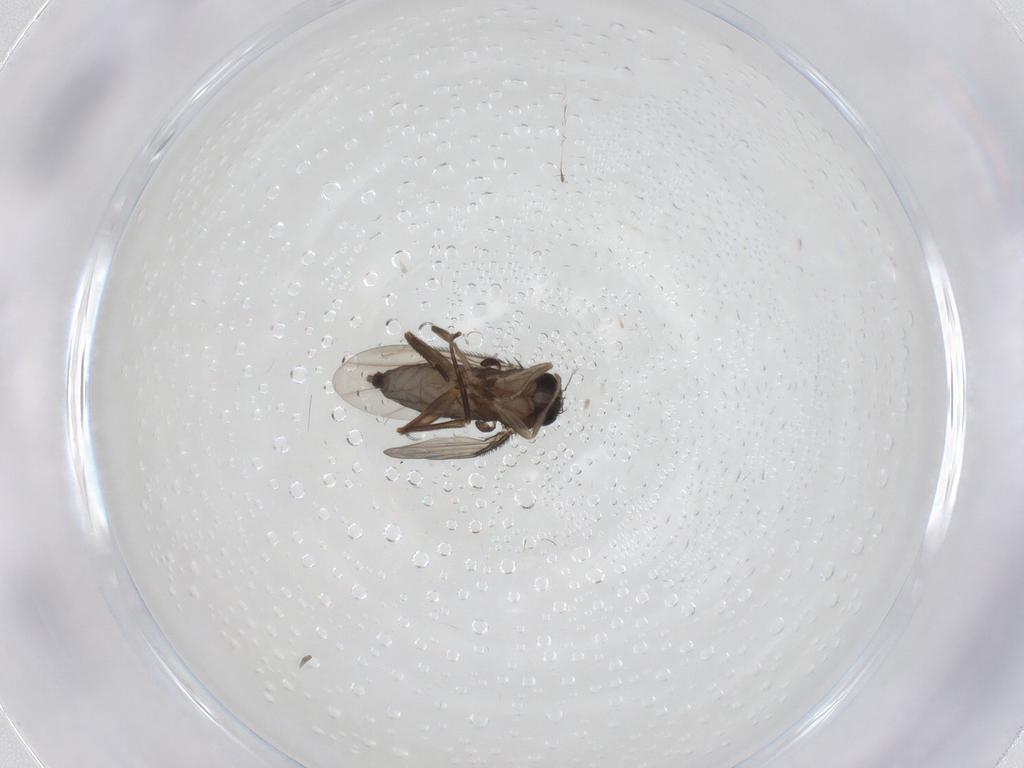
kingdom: Animalia
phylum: Arthropoda
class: Insecta
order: Diptera
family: Phoridae
